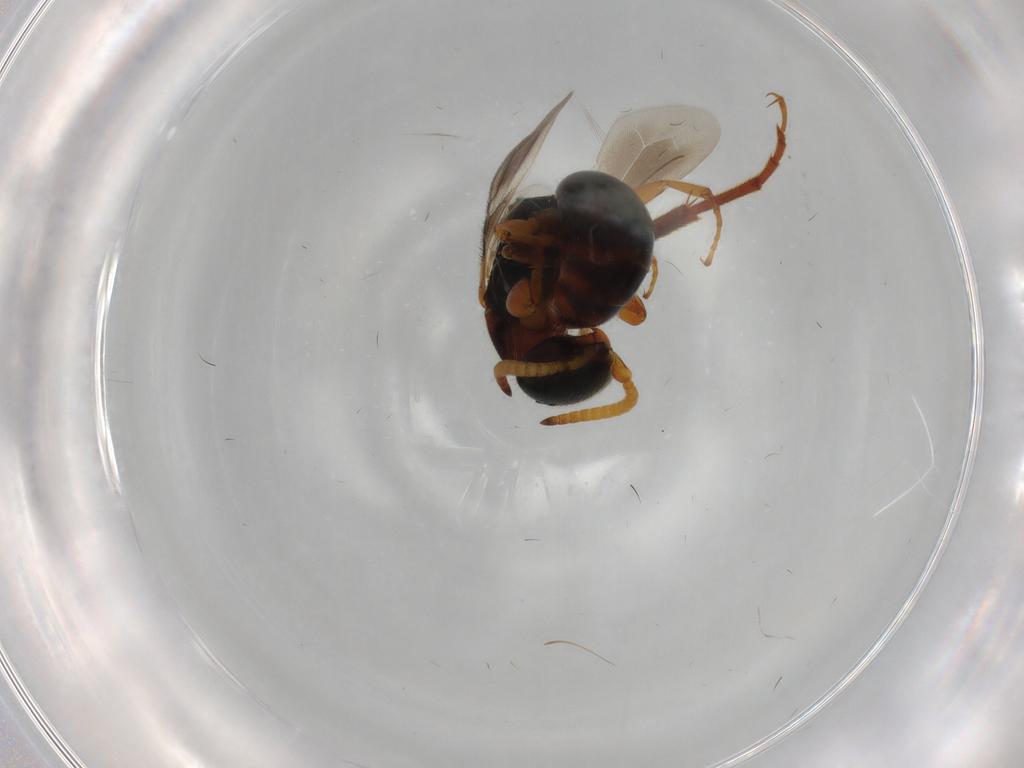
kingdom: Animalia
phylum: Arthropoda
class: Insecta
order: Hymenoptera
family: Bethylidae
